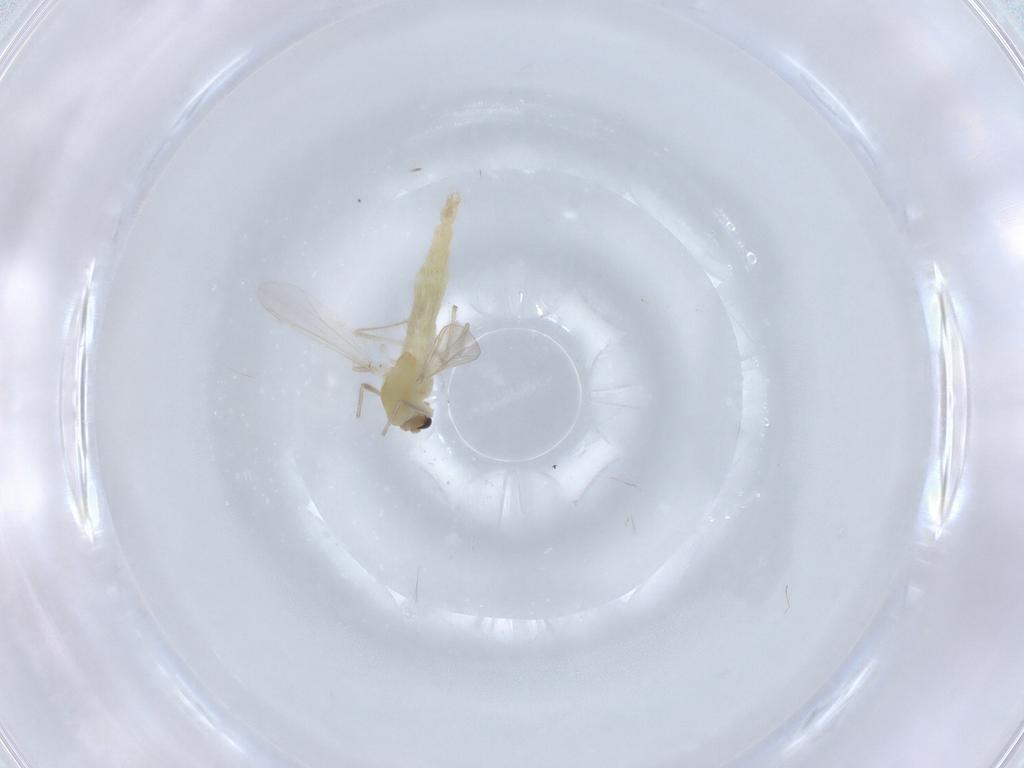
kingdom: Animalia
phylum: Arthropoda
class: Insecta
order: Diptera
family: Chironomidae
